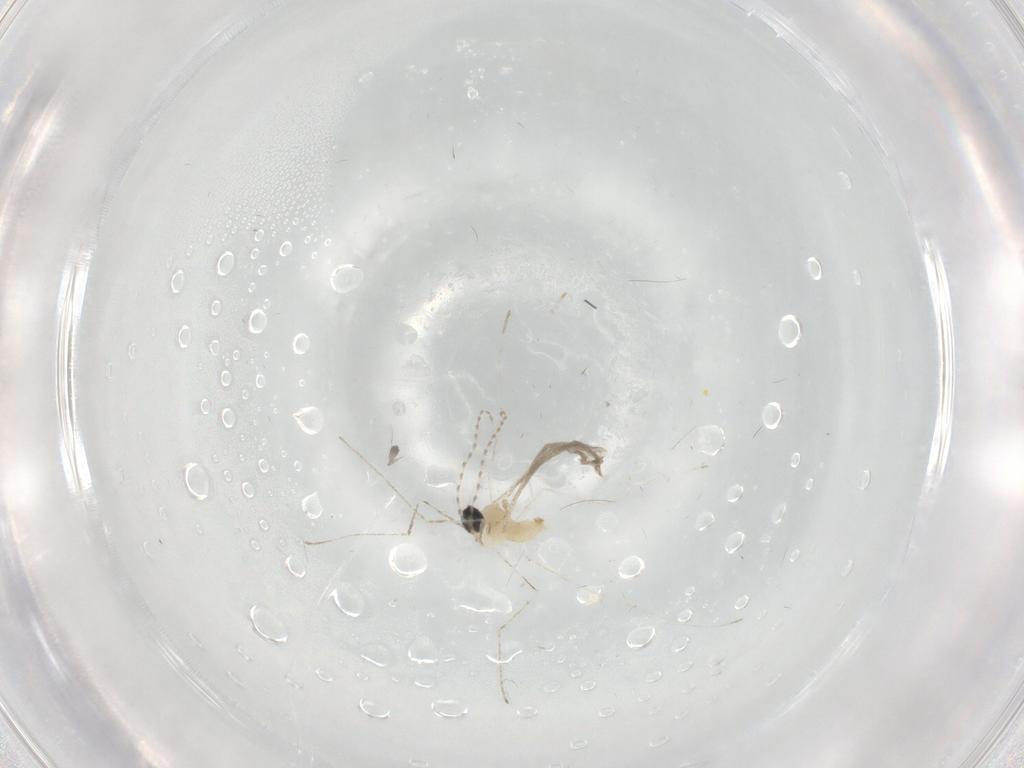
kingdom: Animalia
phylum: Arthropoda
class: Insecta
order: Diptera
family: Cecidomyiidae
